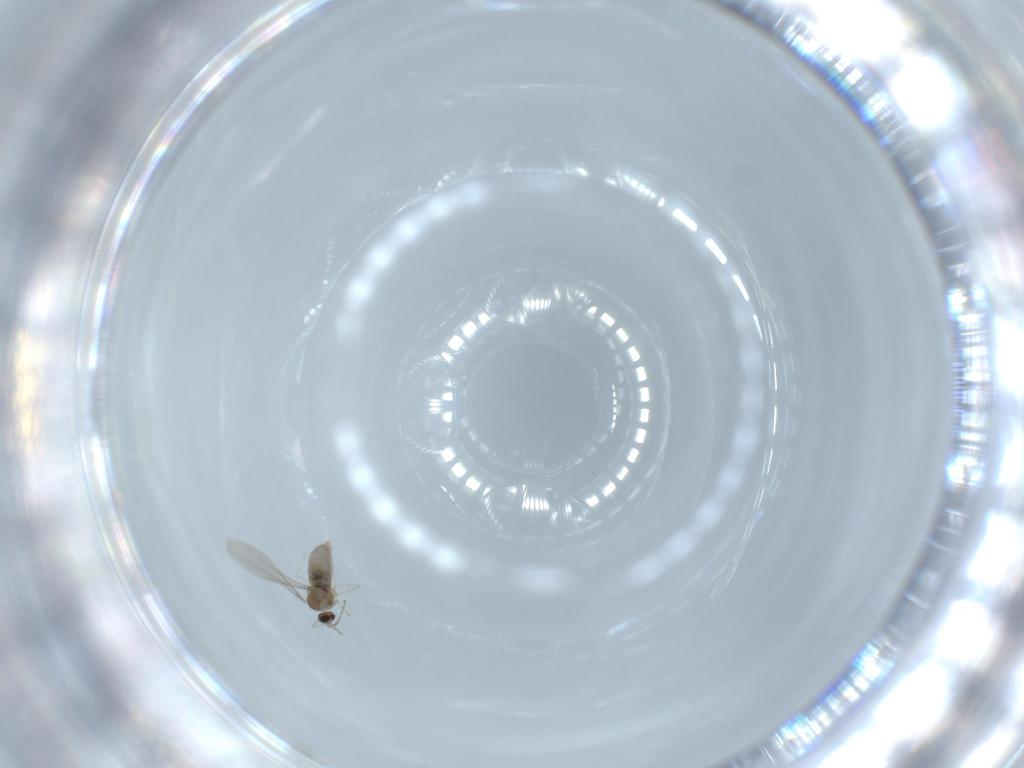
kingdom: Animalia
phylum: Arthropoda
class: Insecta
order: Diptera
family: Cecidomyiidae
